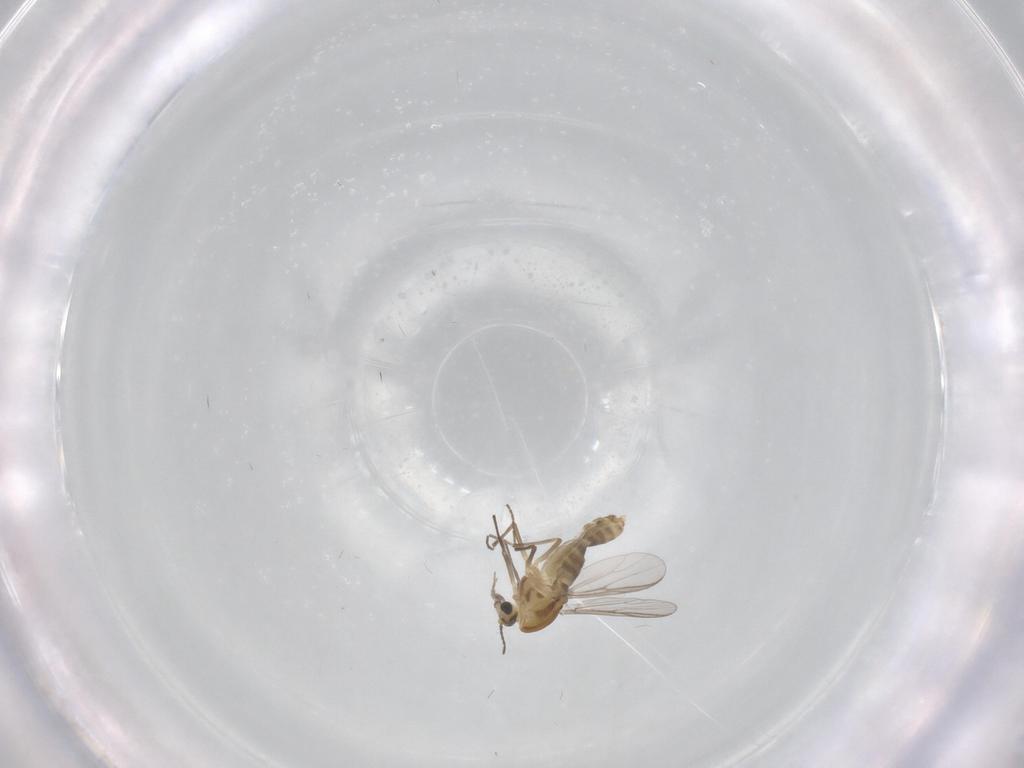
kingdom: Animalia
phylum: Arthropoda
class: Insecta
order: Diptera
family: Chironomidae
